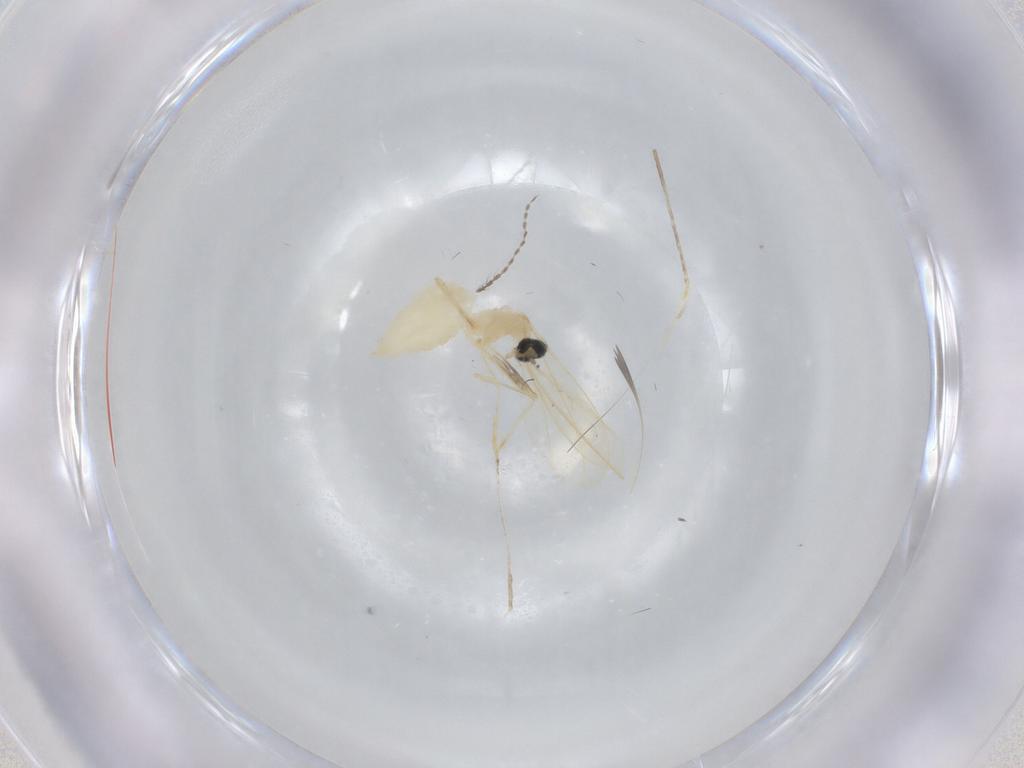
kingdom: Animalia
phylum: Arthropoda
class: Insecta
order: Diptera
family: Cecidomyiidae
